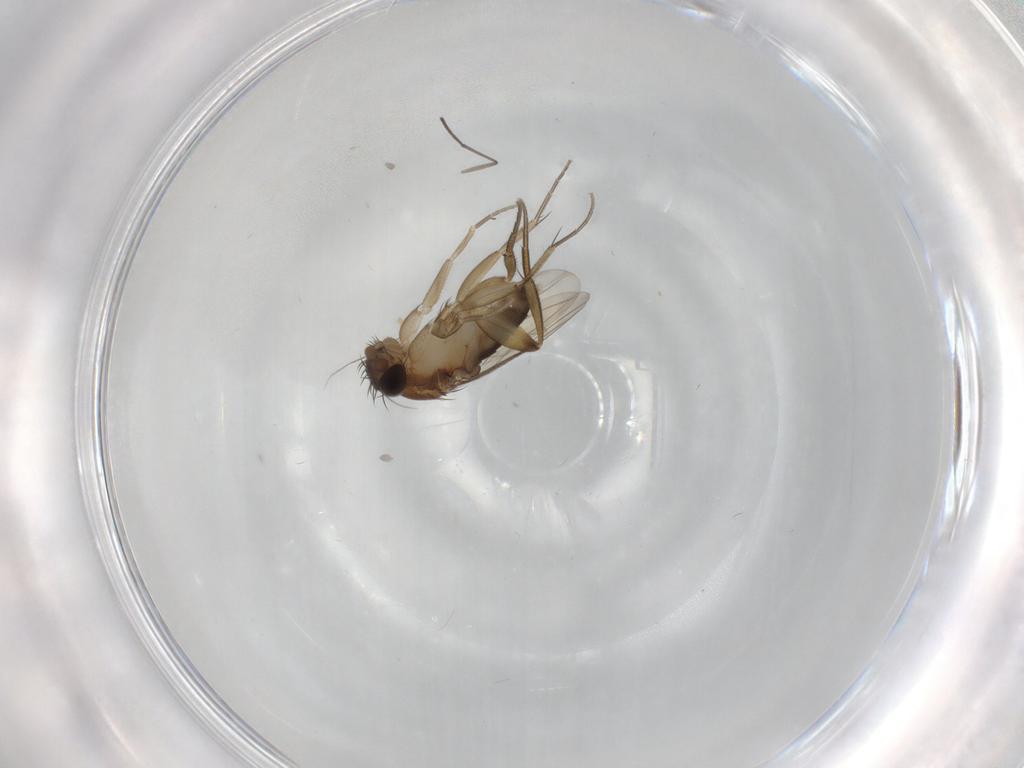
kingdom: Animalia
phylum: Arthropoda
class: Insecta
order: Diptera
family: Phoridae
